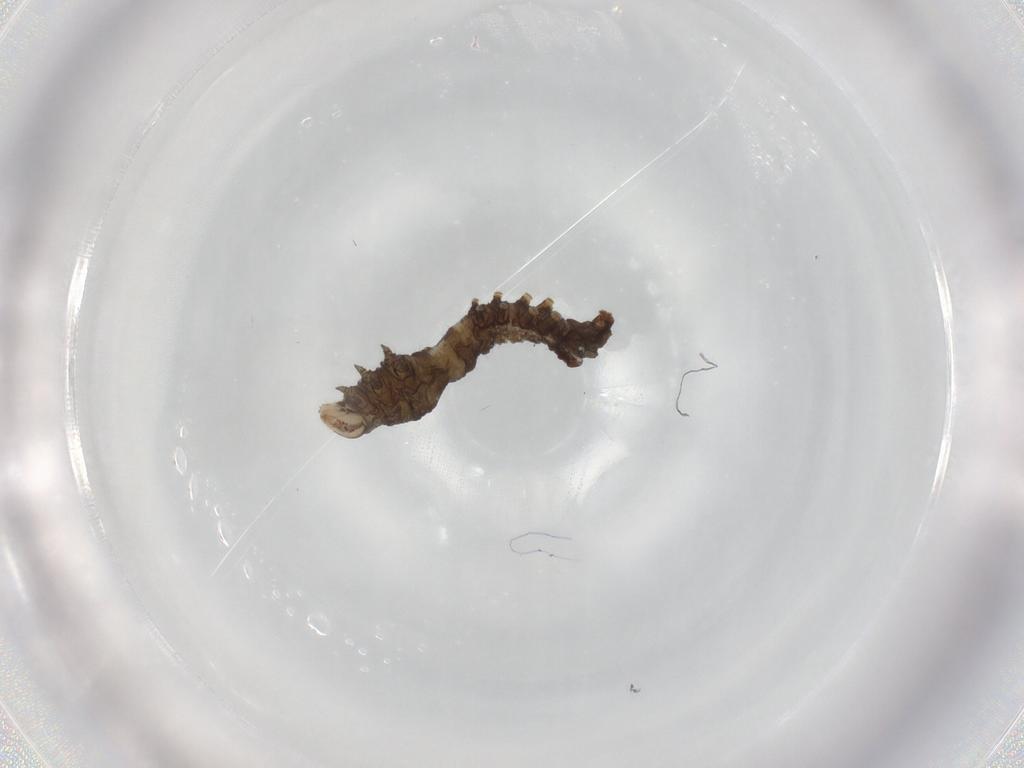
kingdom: Animalia
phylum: Arthropoda
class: Insecta
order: Lepidoptera
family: Noctuidae
